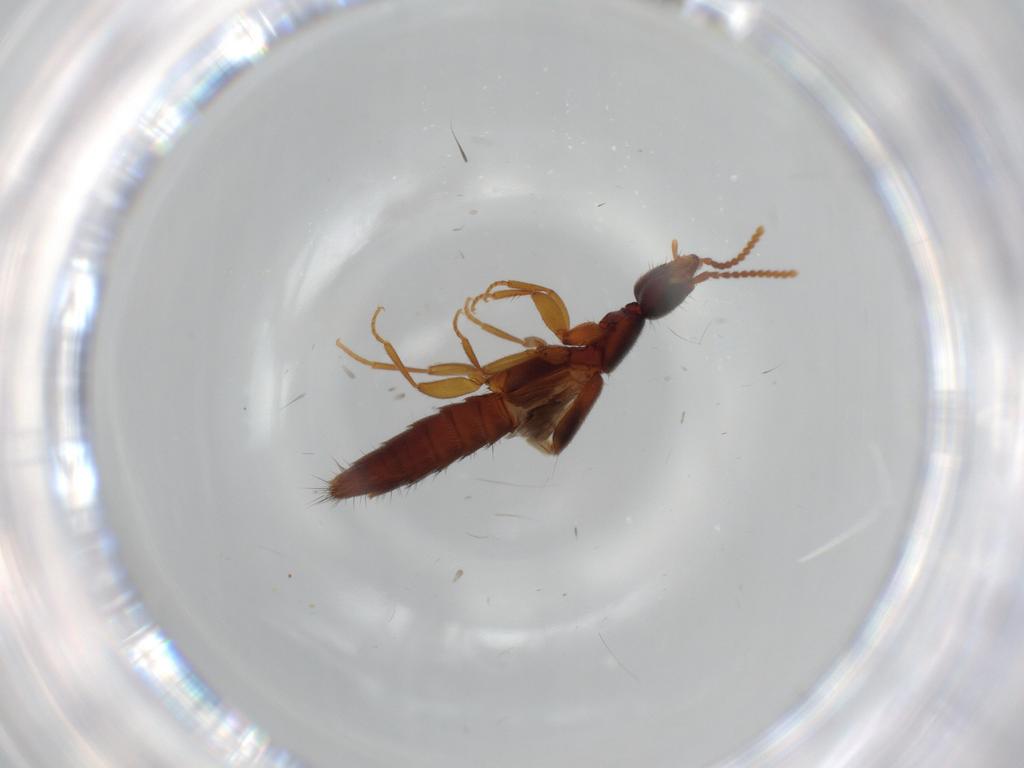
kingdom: Animalia
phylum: Arthropoda
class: Insecta
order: Coleoptera
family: Staphylinidae
